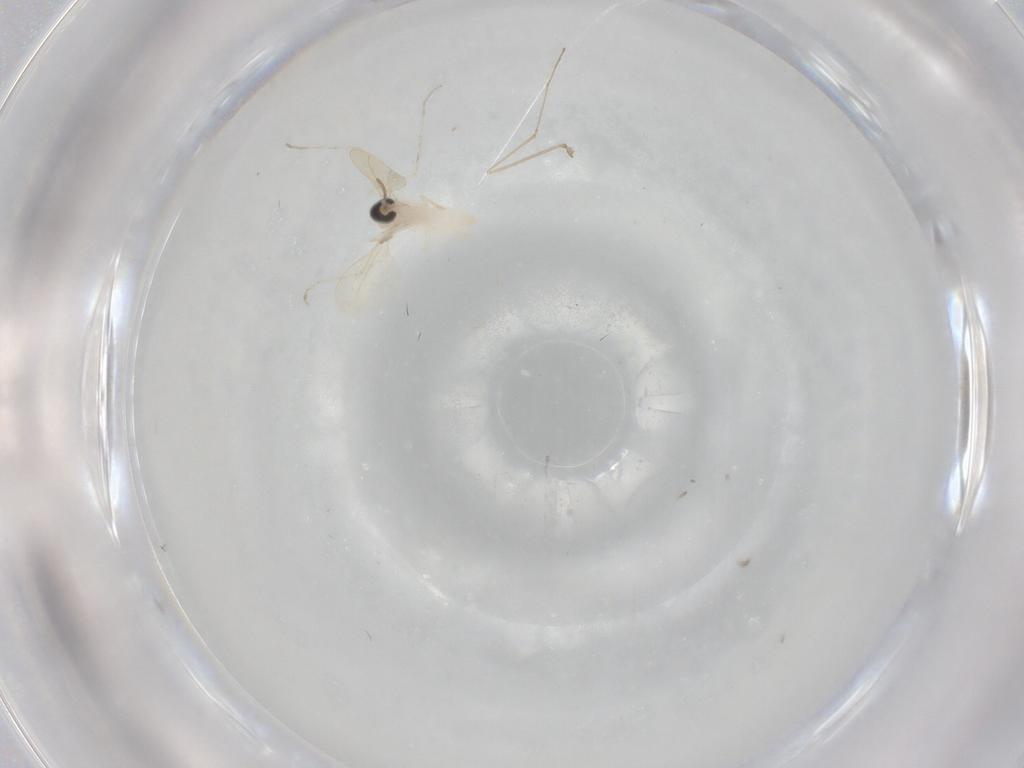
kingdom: Animalia
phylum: Arthropoda
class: Insecta
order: Diptera
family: Cecidomyiidae
